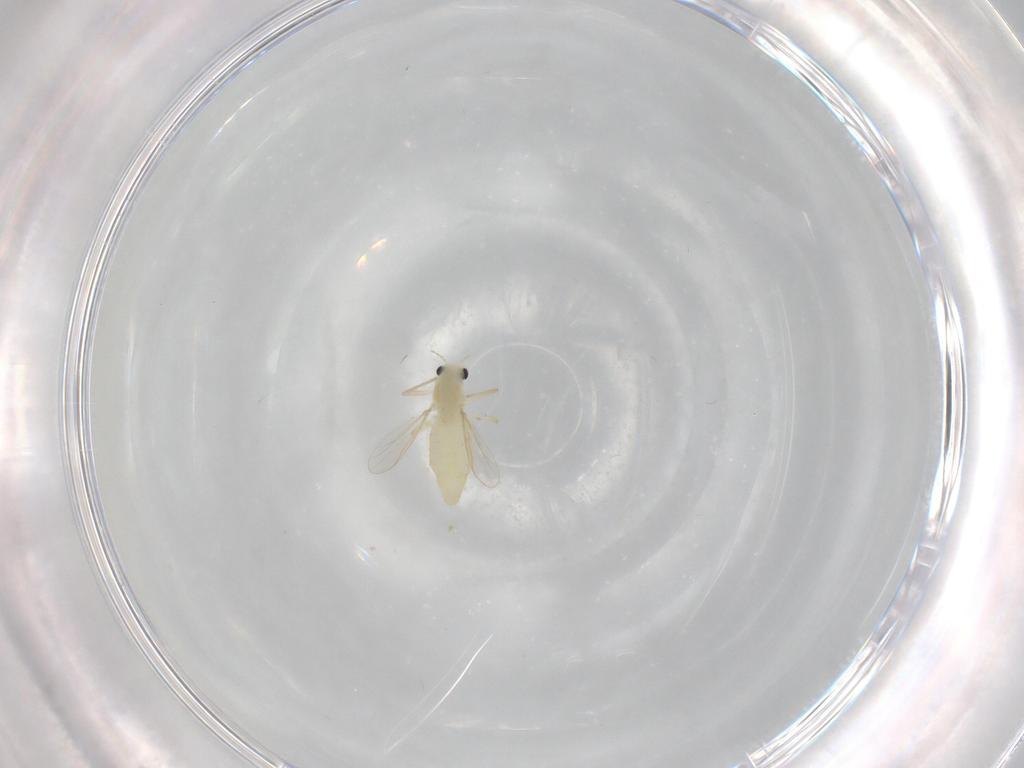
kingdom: Animalia
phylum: Arthropoda
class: Insecta
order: Diptera
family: Chironomidae
